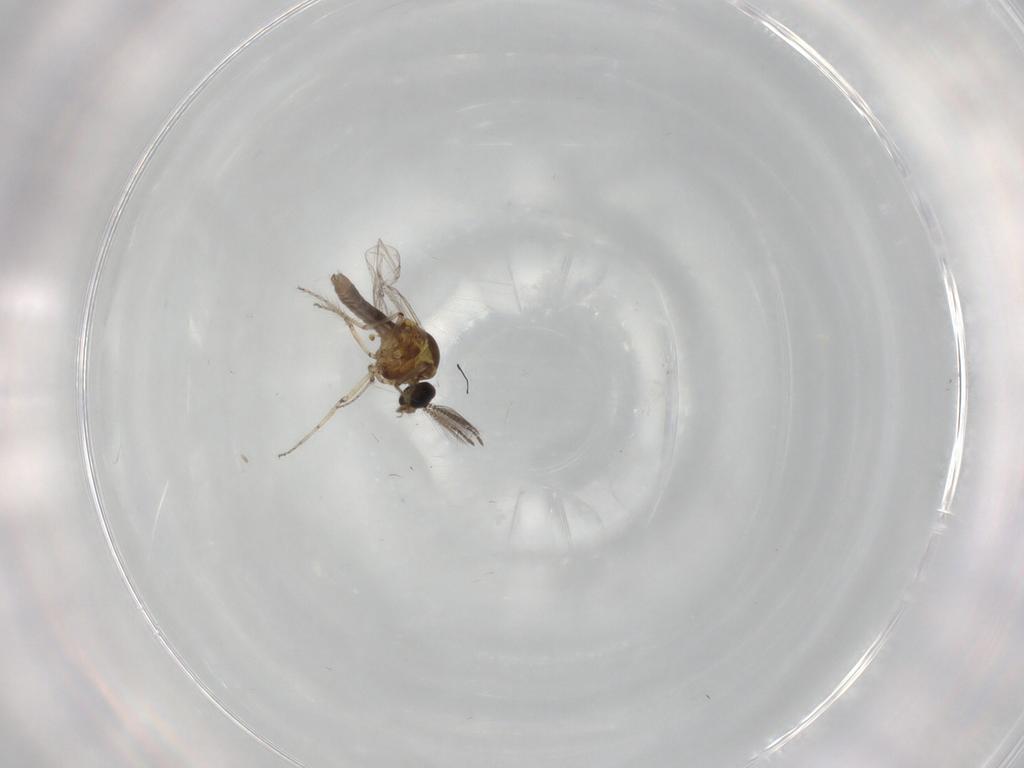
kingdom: Animalia
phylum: Arthropoda
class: Insecta
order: Diptera
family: Ceratopogonidae
